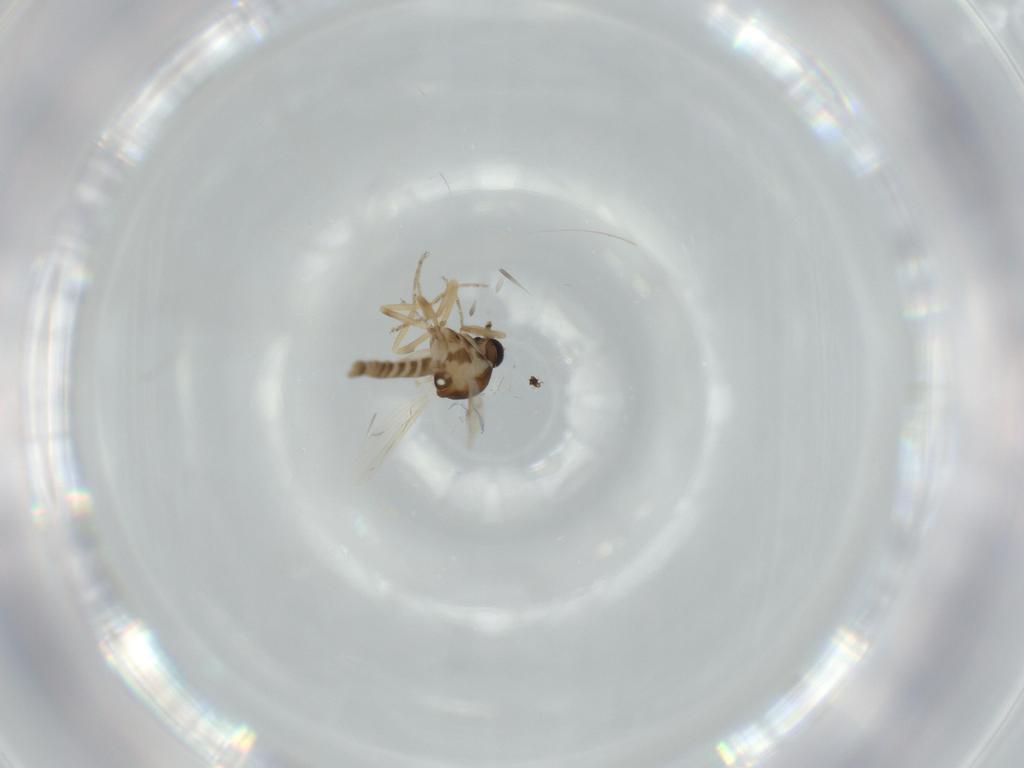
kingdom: Animalia
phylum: Arthropoda
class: Insecta
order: Diptera
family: Ceratopogonidae
